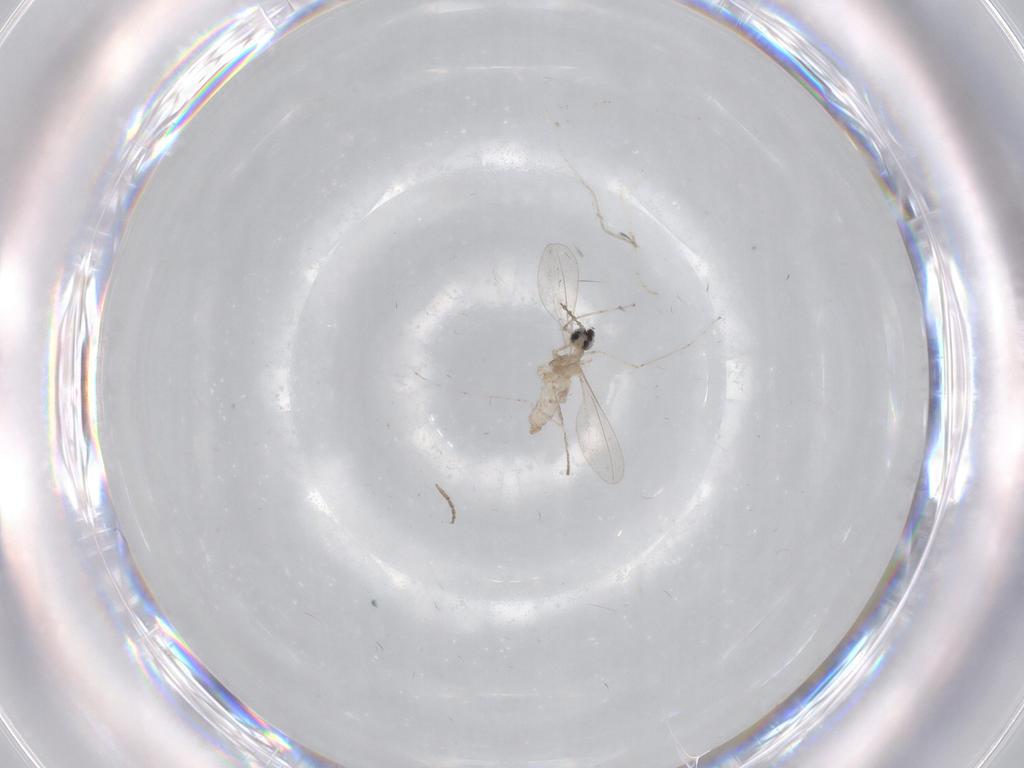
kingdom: Animalia
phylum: Arthropoda
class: Insecta
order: Diptera
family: Cecidomyiidae
